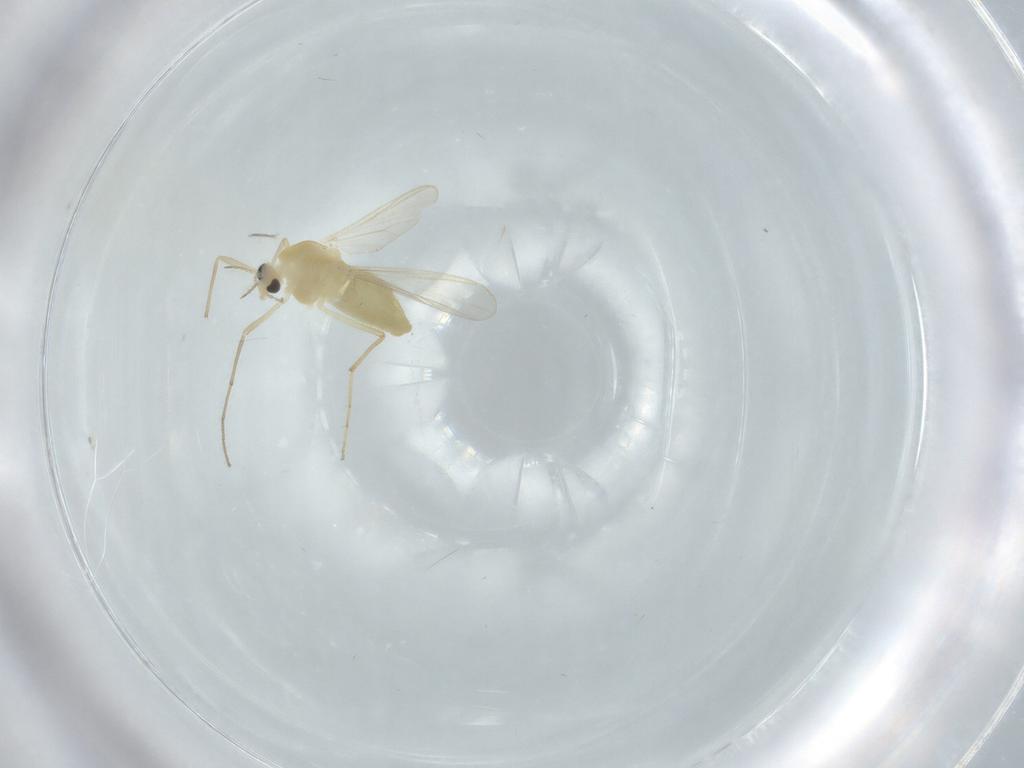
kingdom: Animalia
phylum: Arthropoda
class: Insecta
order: Diptera
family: Chironomidae
